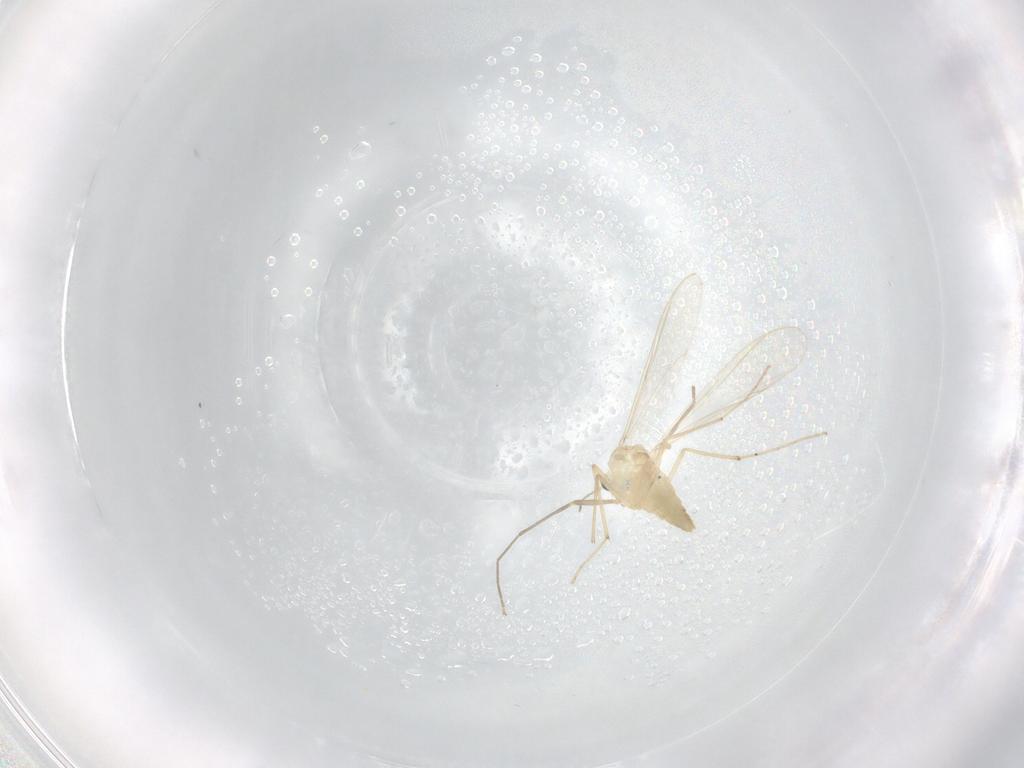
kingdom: Animalia
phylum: Arthropoda
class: Insecta
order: Diptera
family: Chironomidae
